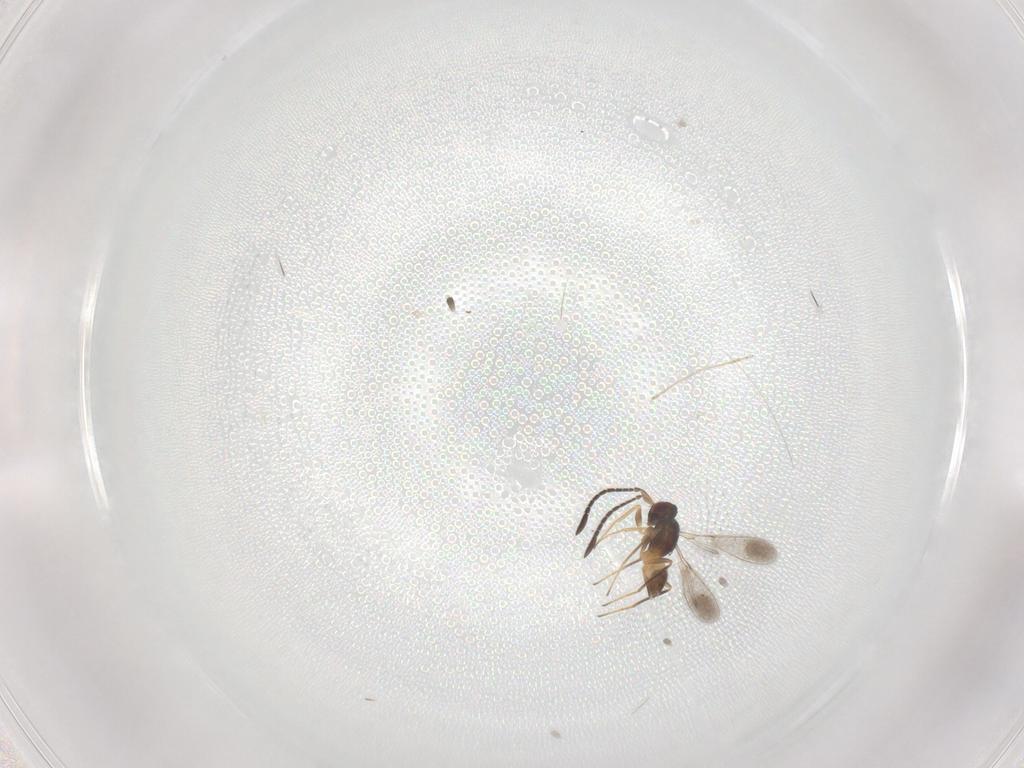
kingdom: Animalia
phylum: Arthropoda
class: Insecta
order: Hymenoptera
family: Mymaridae
